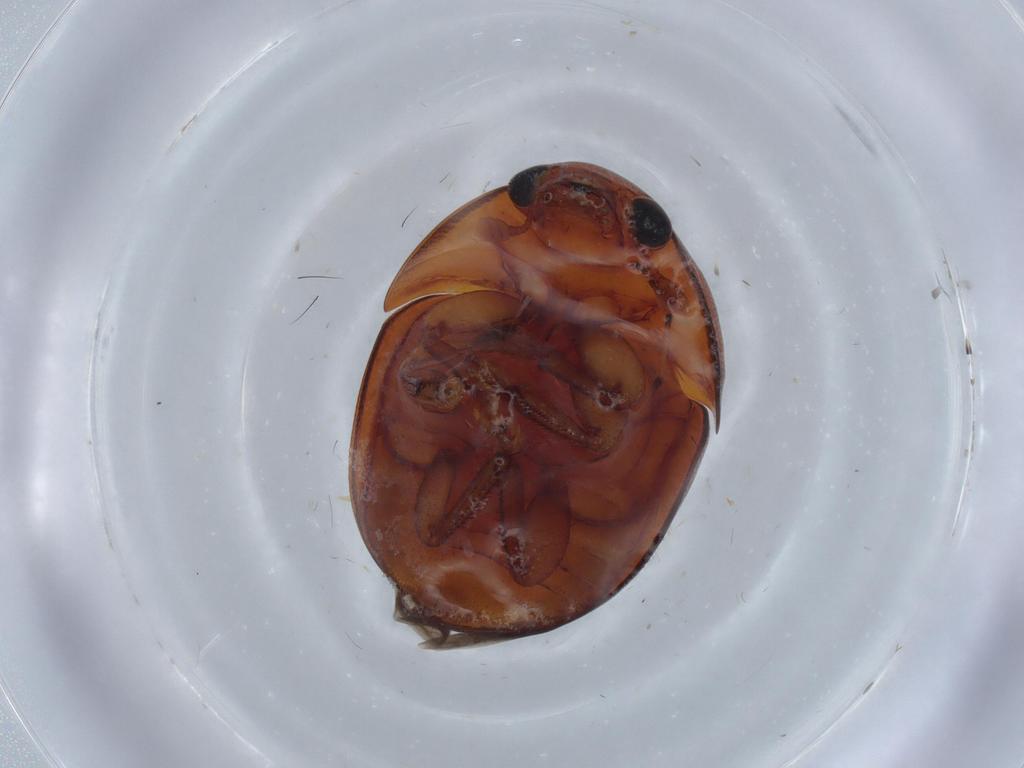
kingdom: Animalia
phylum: Arthropoda
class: Insecta
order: Coleoptera
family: Nitidulidae
